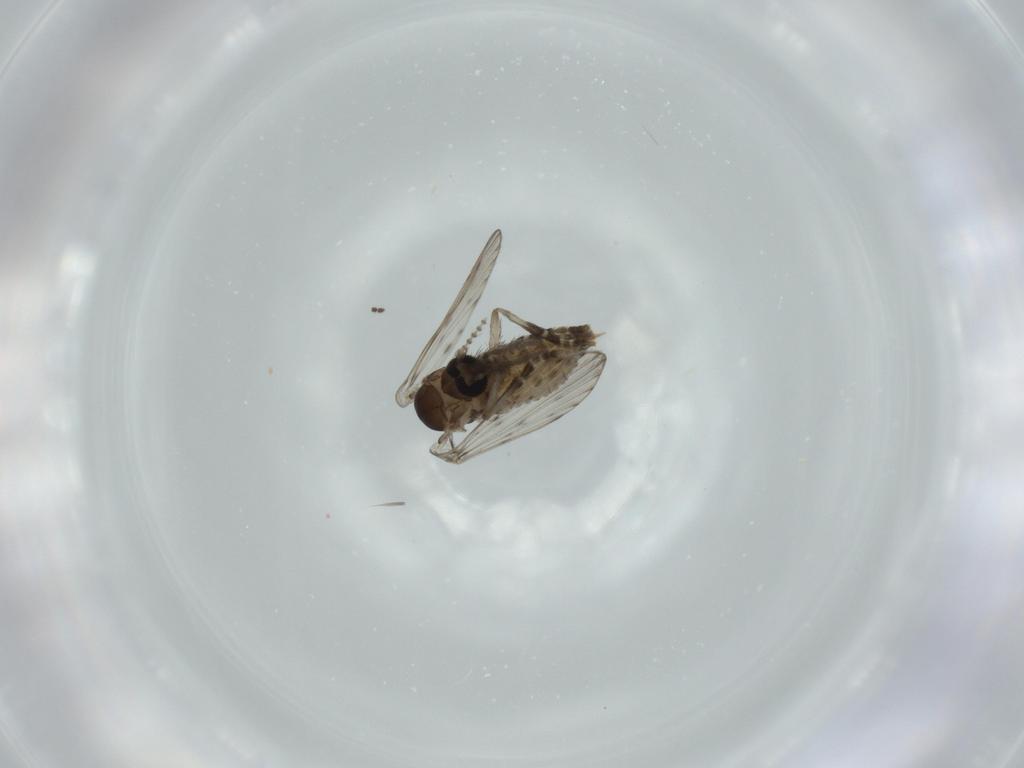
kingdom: Animalia
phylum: Arthropoda
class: Insecta
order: Diptera
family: Psychodidae
